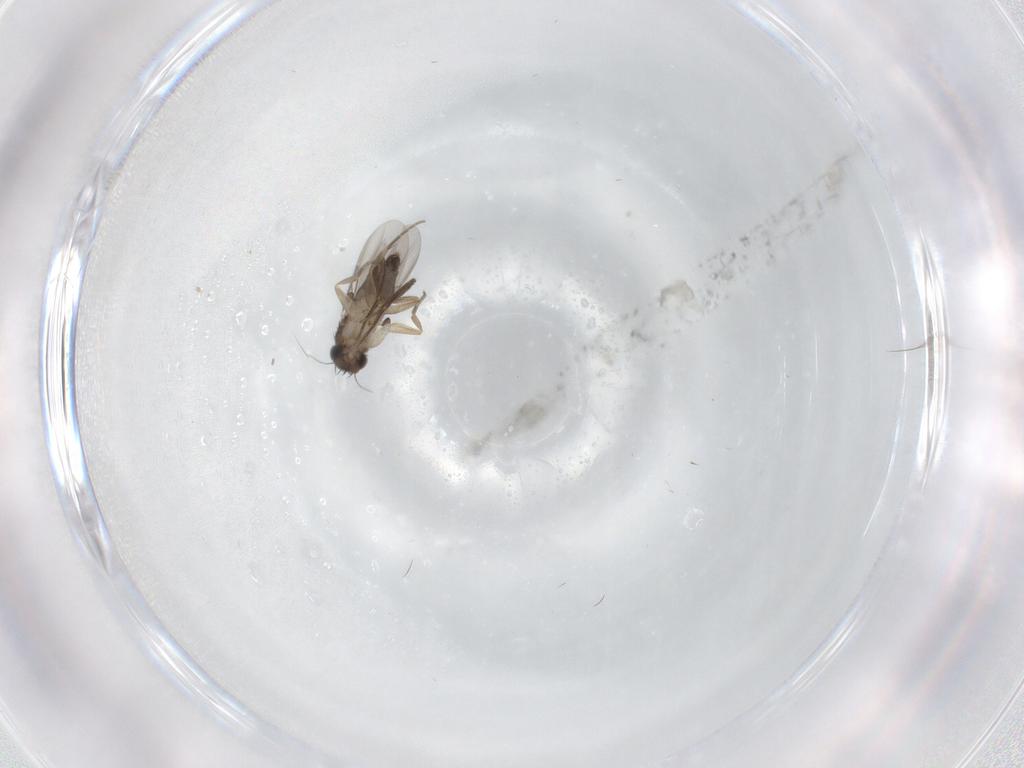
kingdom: Animalia
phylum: Arthropoda
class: Insecta
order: Diptera
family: Phoridae
